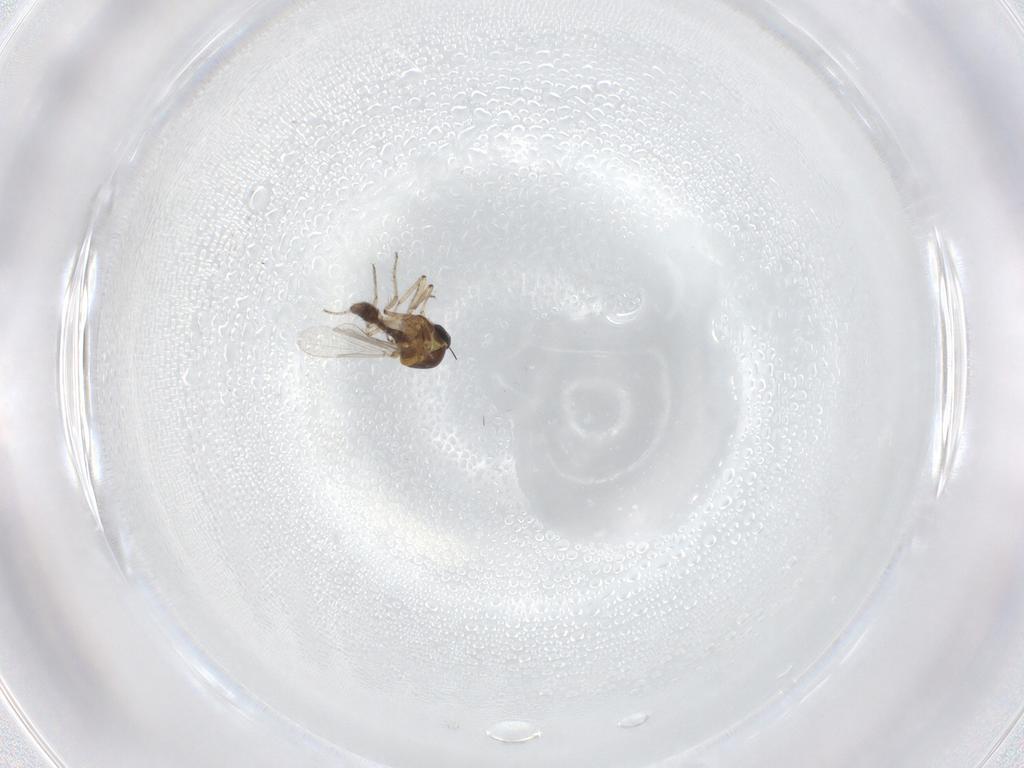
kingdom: Animalia
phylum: Arthropoda
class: Insecta
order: Diptera
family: Ceratopogonidae
